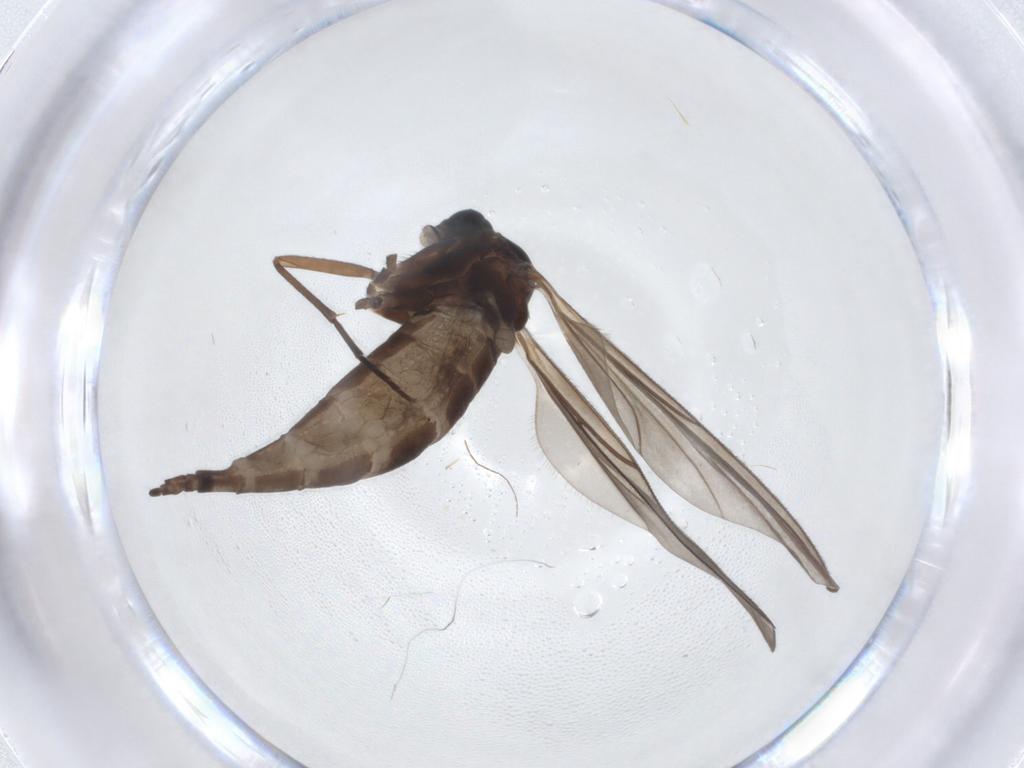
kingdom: Animalia
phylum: Arthropoda
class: Insecta
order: Diptera
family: Sciaridae
